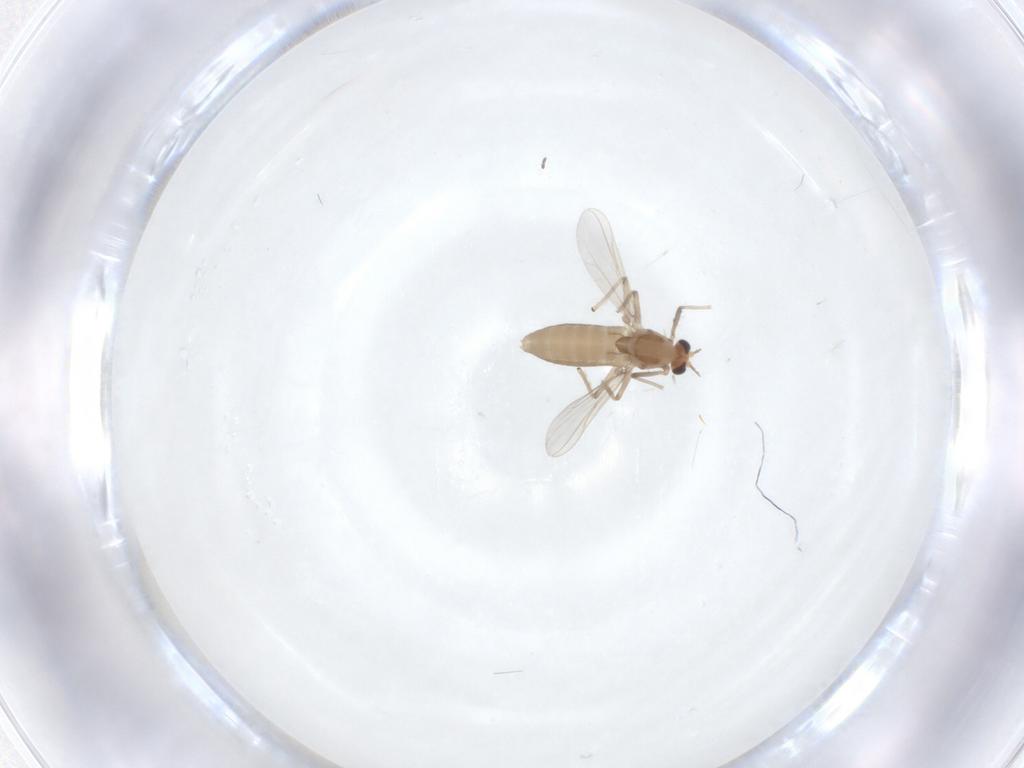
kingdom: Animalia
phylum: Arthropoda
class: Insecta
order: Diptera
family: Chironomidae
